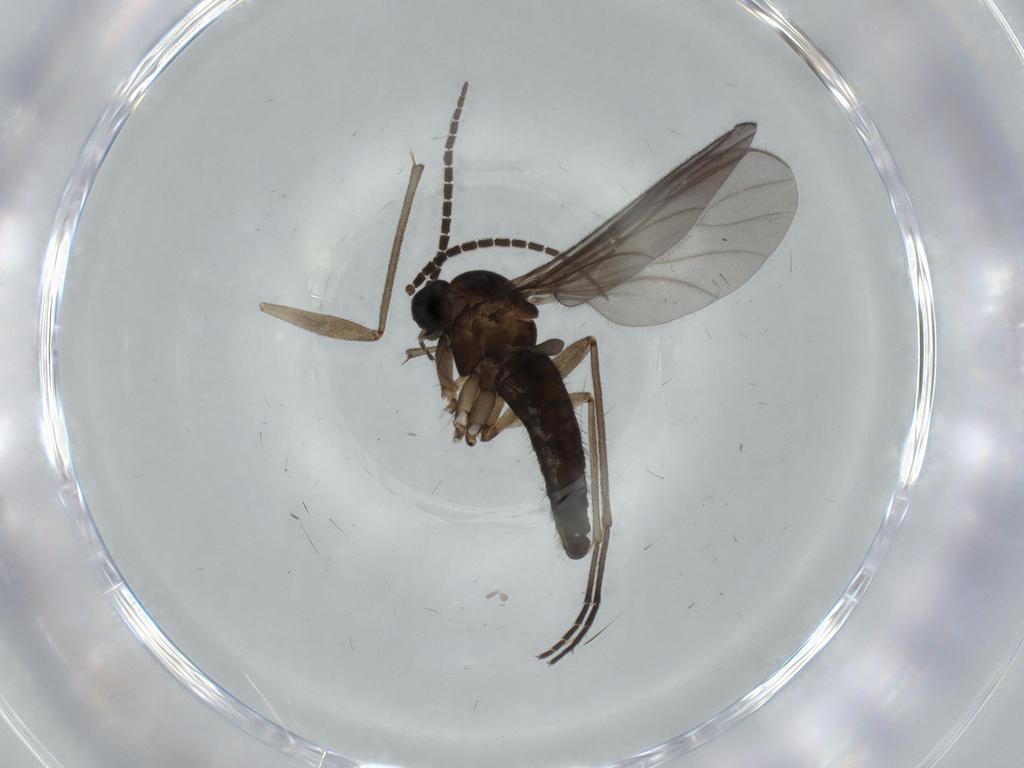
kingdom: Animalia
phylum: Arthropoda
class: Insecta
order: Diptera
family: Sciaridae
